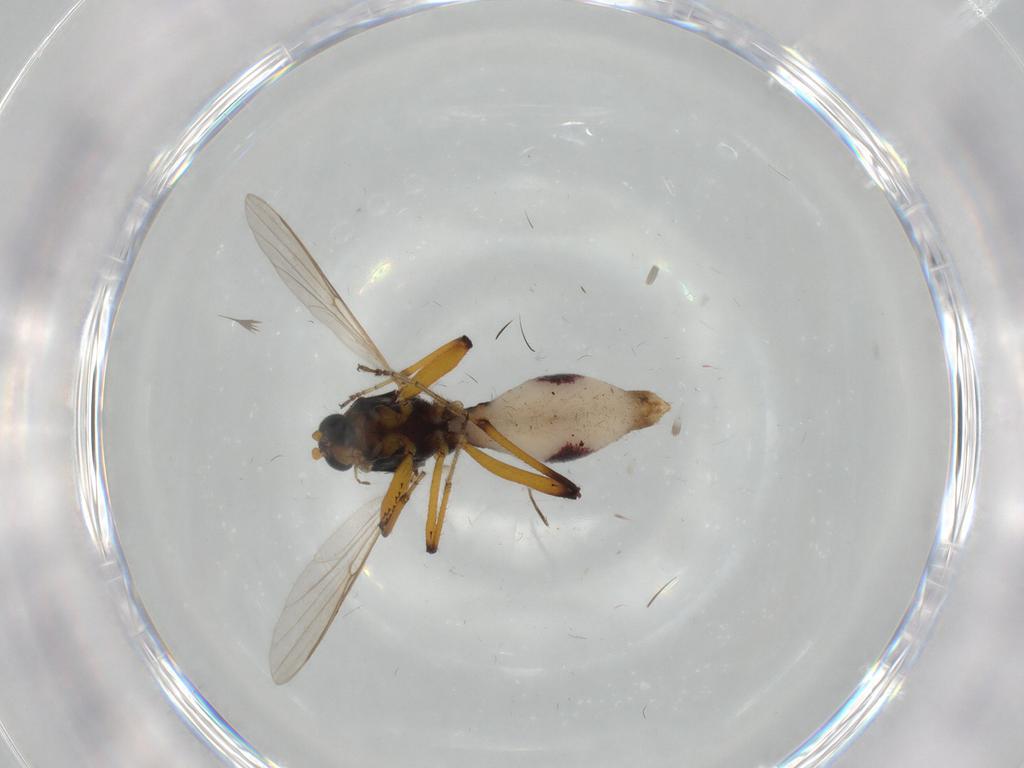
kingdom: Animalia
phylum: Arthropoda
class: Insecta
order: Diptera
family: Ceratopogonidae
